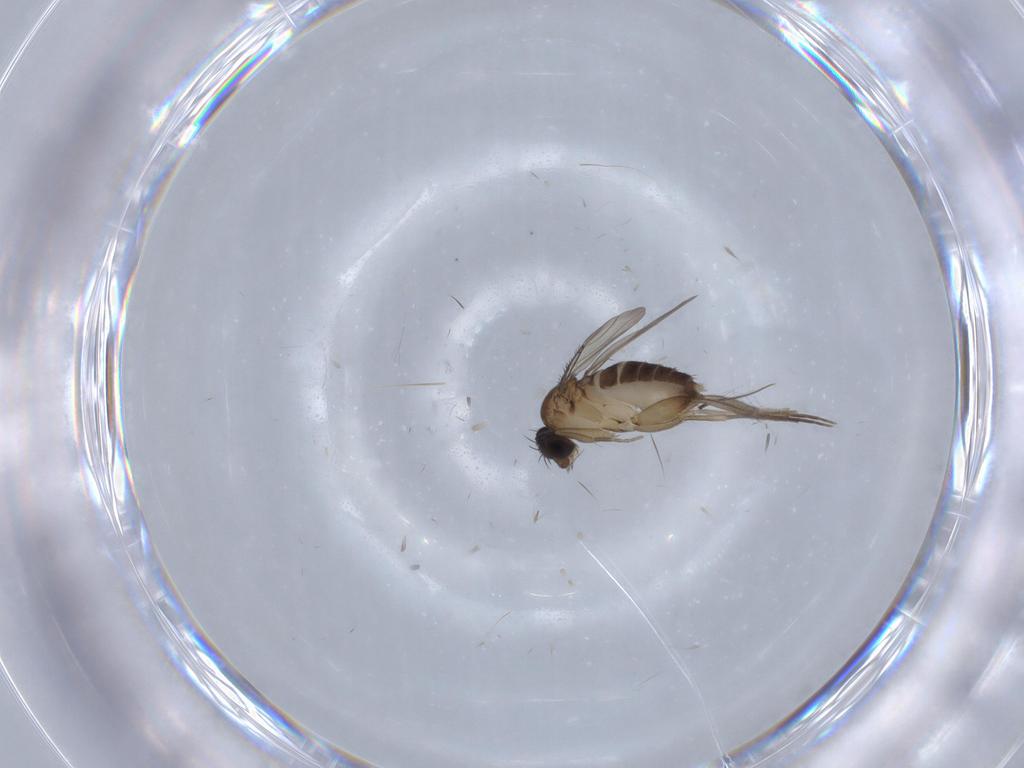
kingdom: Animalia
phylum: Arthropoda
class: Insecta
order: Diptera
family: Phoridae
